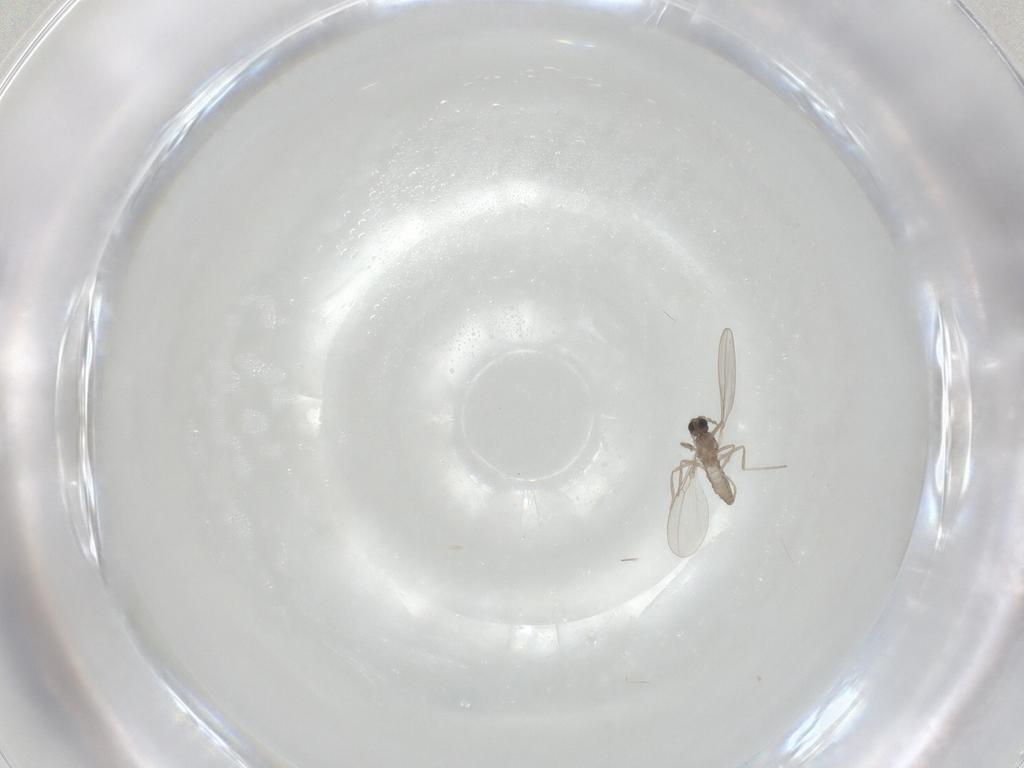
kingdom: Animalia
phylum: Arthropoda
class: Insecta
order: Diptera
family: Cecidomyiidae
